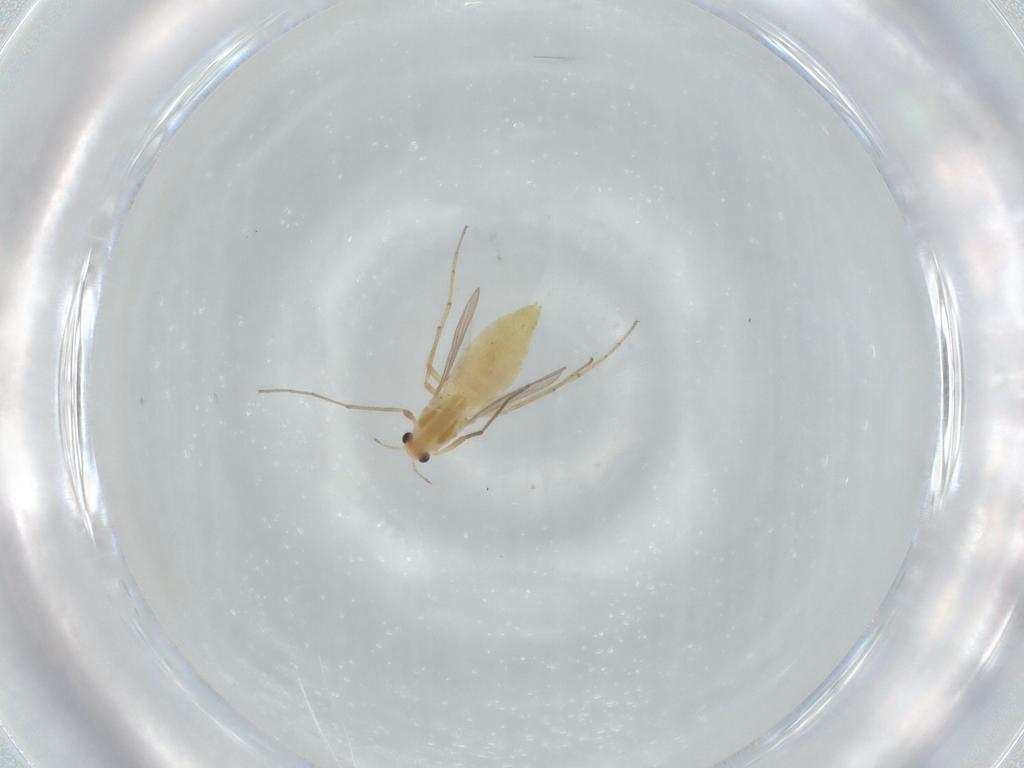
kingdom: Animalia
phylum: Arthropoda
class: Insecta
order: Diptera
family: Chironomidae
